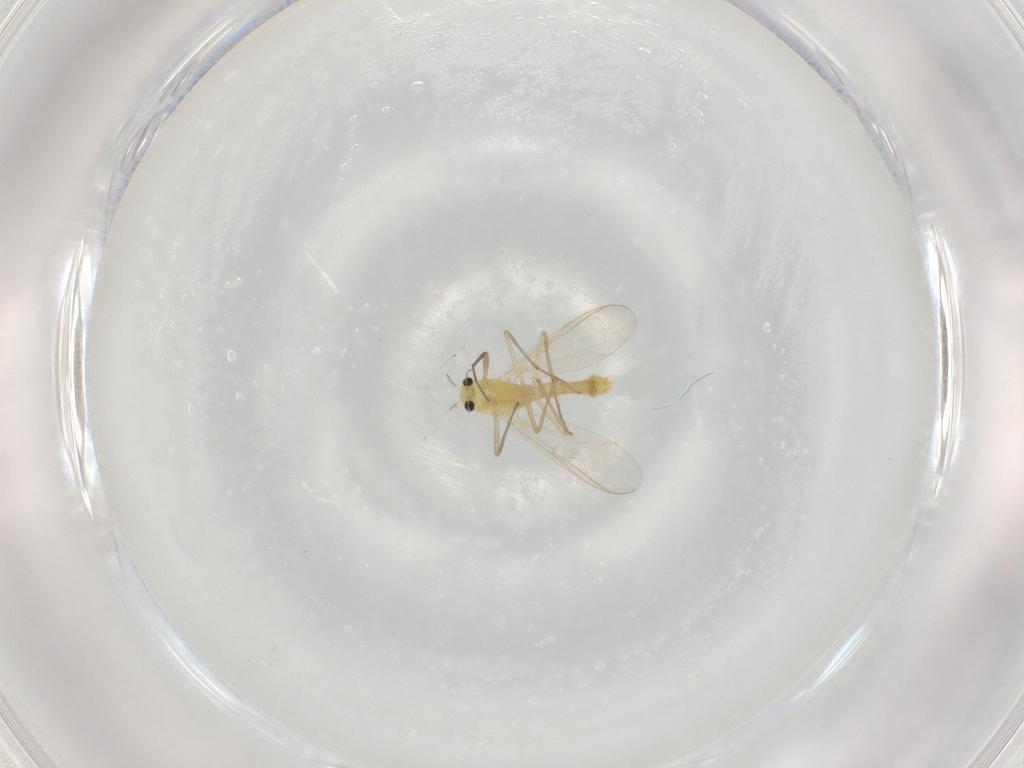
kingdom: Animalia
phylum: Arthropoda
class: Insecta
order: Diptera
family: Chironomidae
